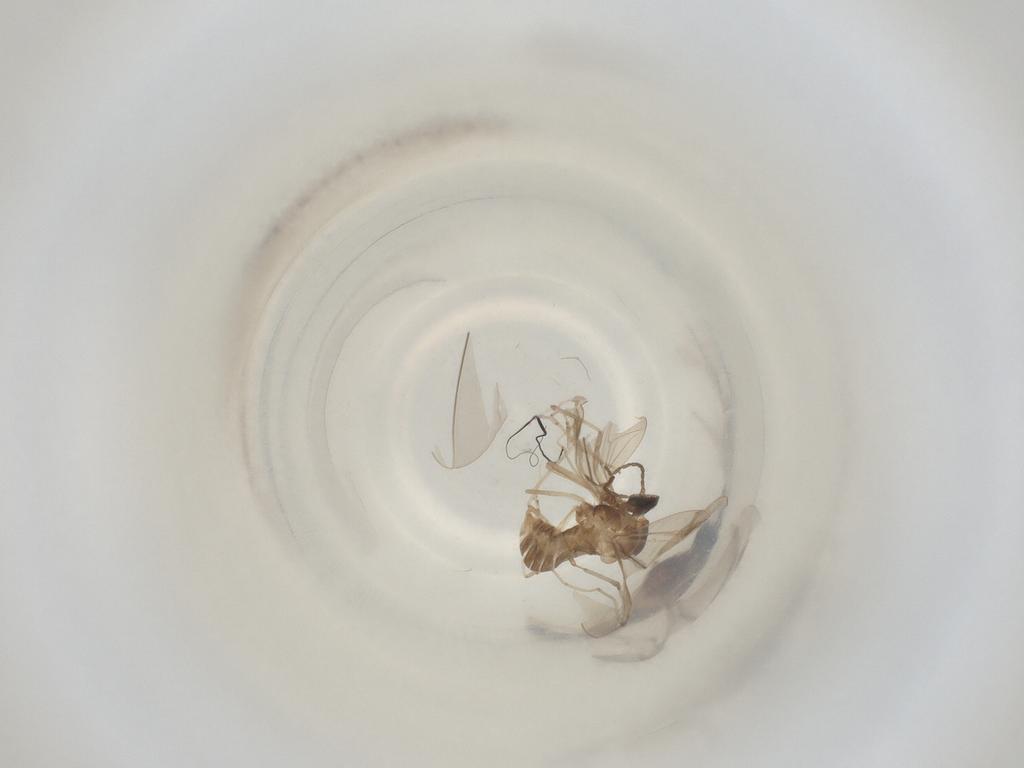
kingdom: Animalia
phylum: Arthropoda
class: Insecta
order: Diptera
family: Cecidomyiidae
